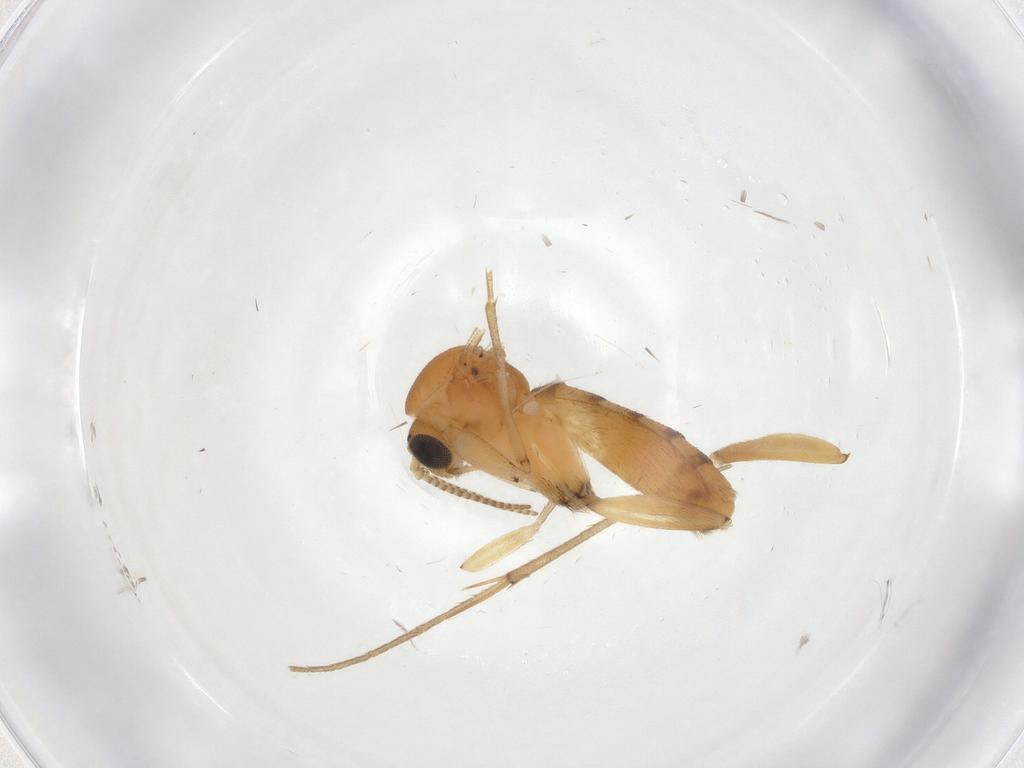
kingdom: Animalia
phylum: Arthropoda
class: Insecta
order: Diptera
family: Mycetophilidae
